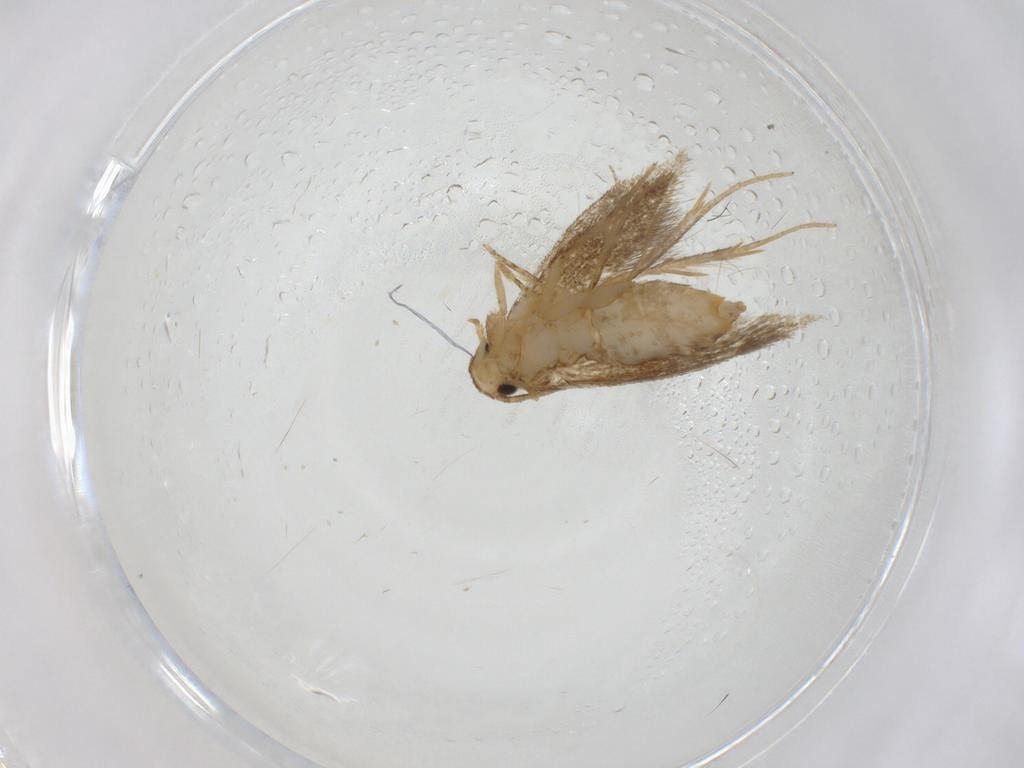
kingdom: Animalia
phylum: Arthropoda
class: Insecta
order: Lepidoptera
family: Tineidae
